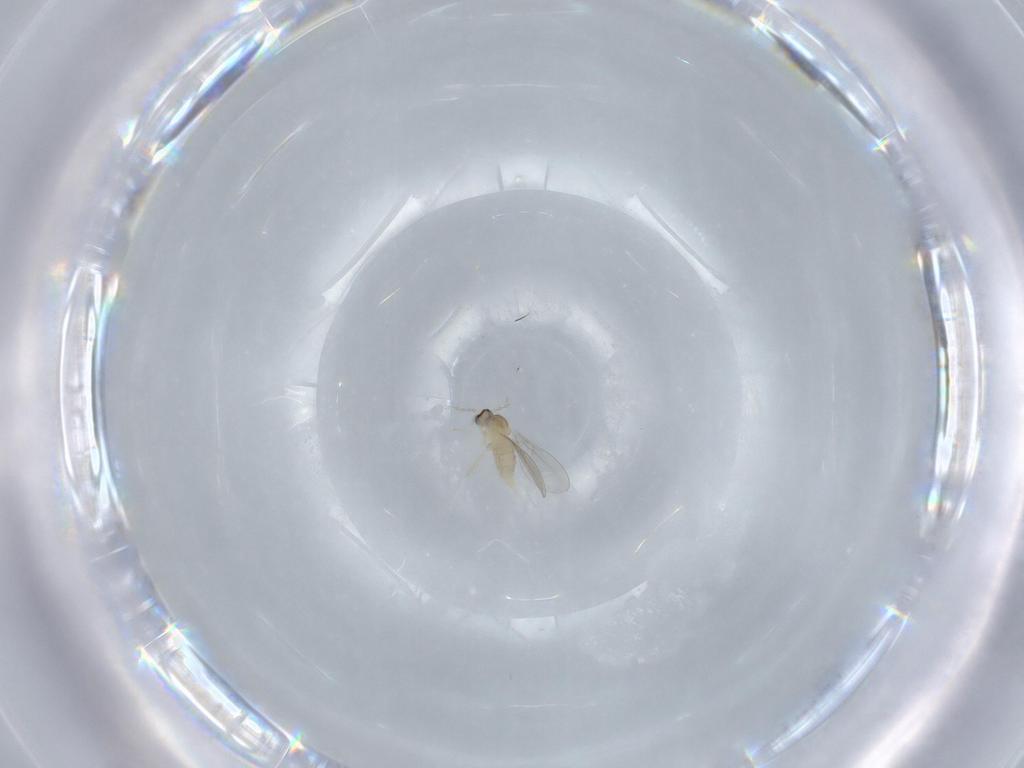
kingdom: Animalia
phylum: Arthropoda
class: Insecta
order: Diptera
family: Cecidomyiidae
